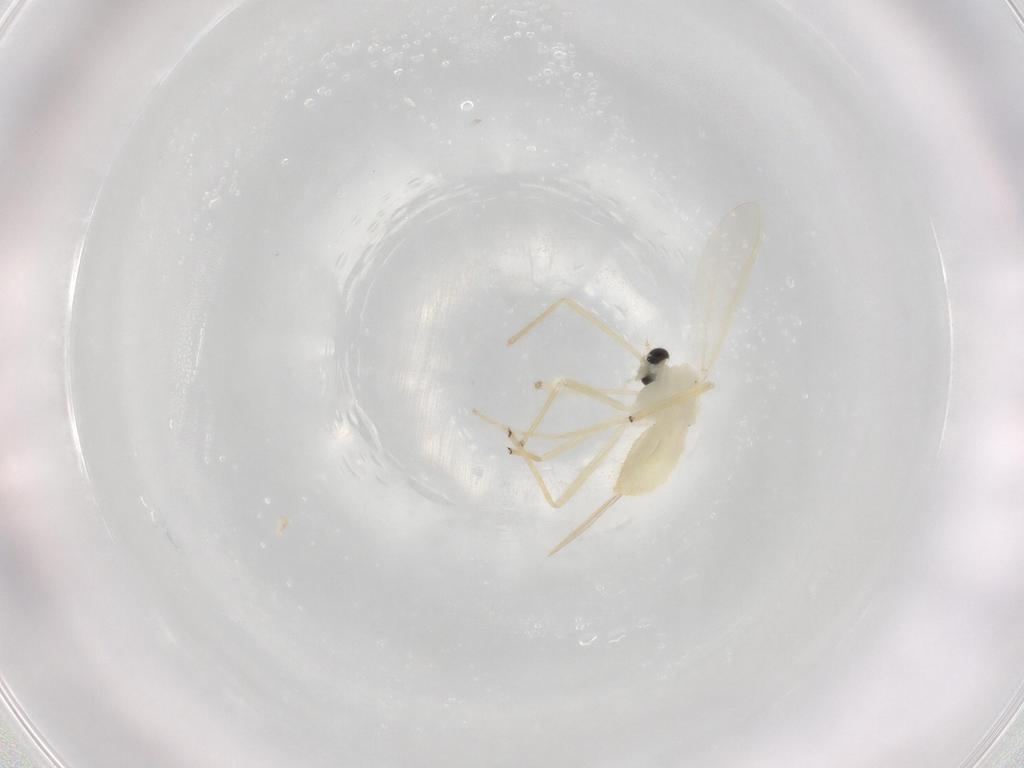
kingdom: Animalia
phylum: Arthropoda
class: Insecta
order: Diptera
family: Chironomidae
